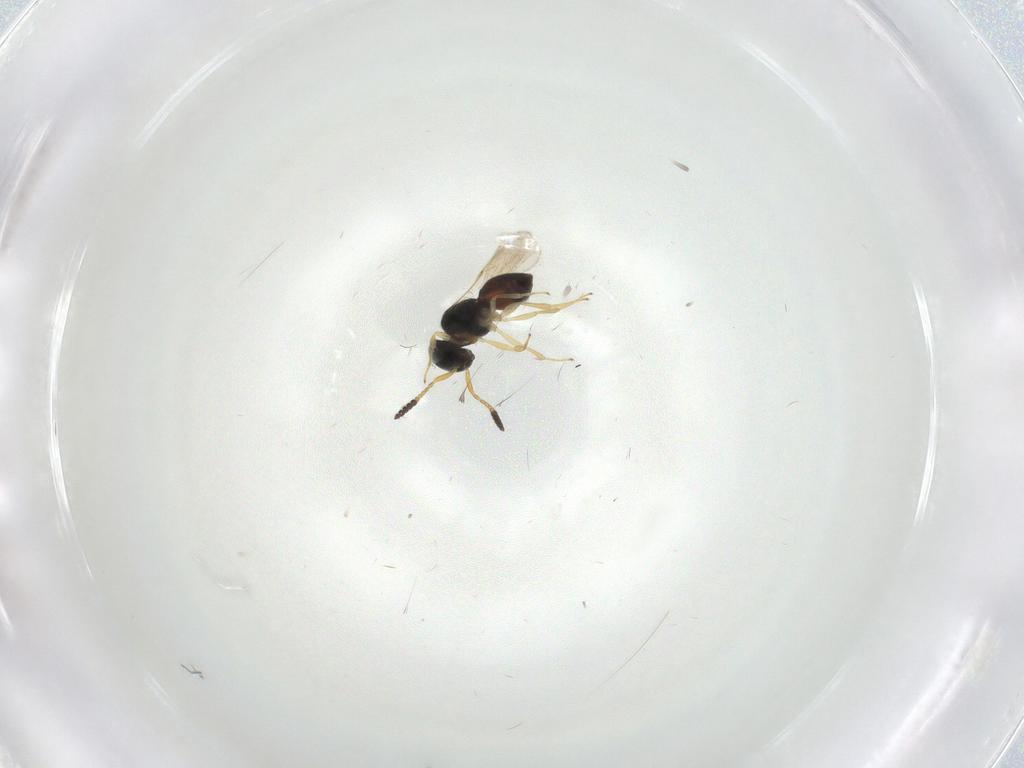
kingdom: Animalia
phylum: Arthropoda
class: Insecta
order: Hymenoptera
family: Scelionidae
